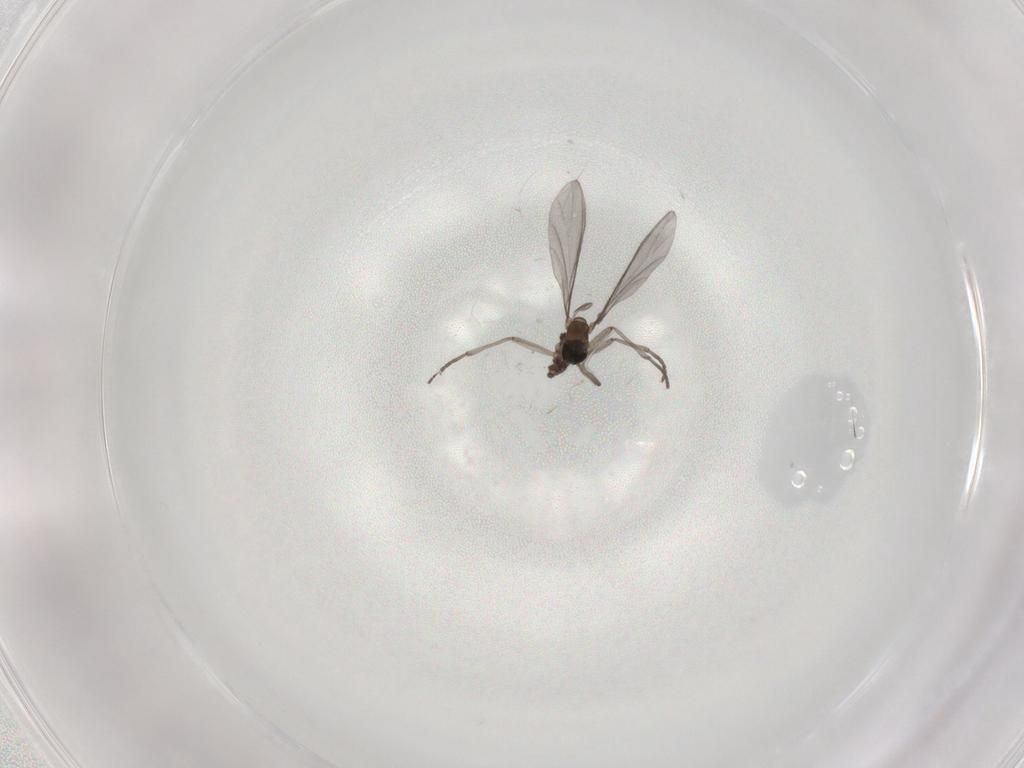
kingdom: Animalia
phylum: Arthropoda
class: Insecta
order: Diptera
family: Sciaridae
